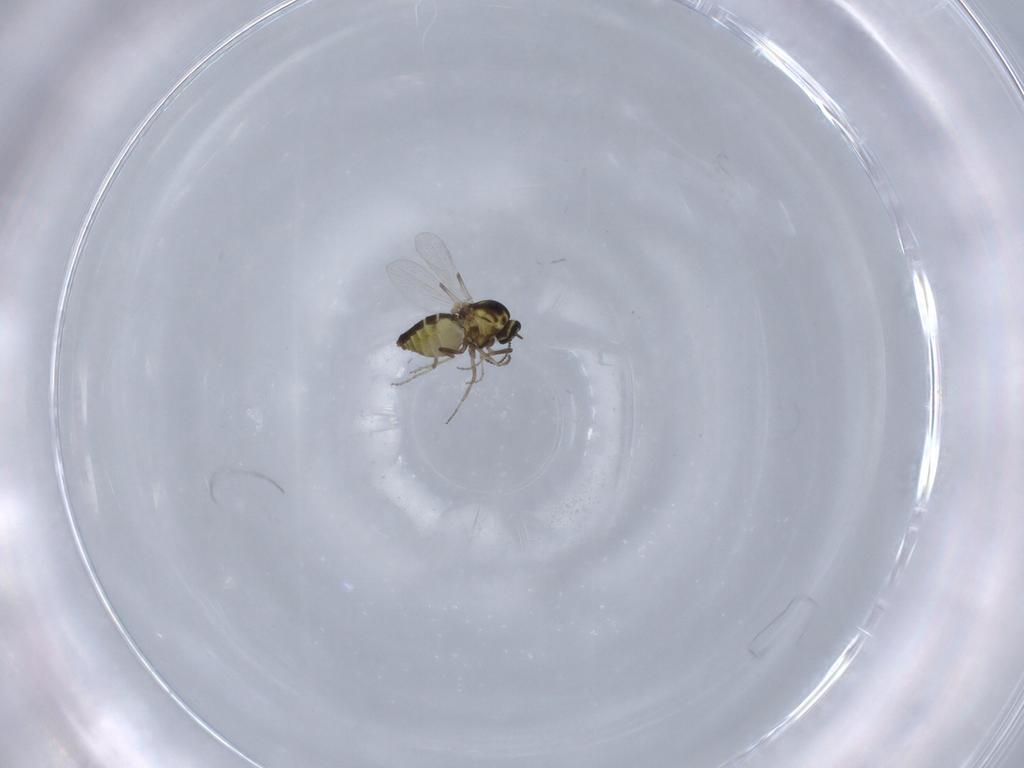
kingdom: Animalia
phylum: Arthropoda
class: Insecta
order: Diptera
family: Ceratopogonidae
